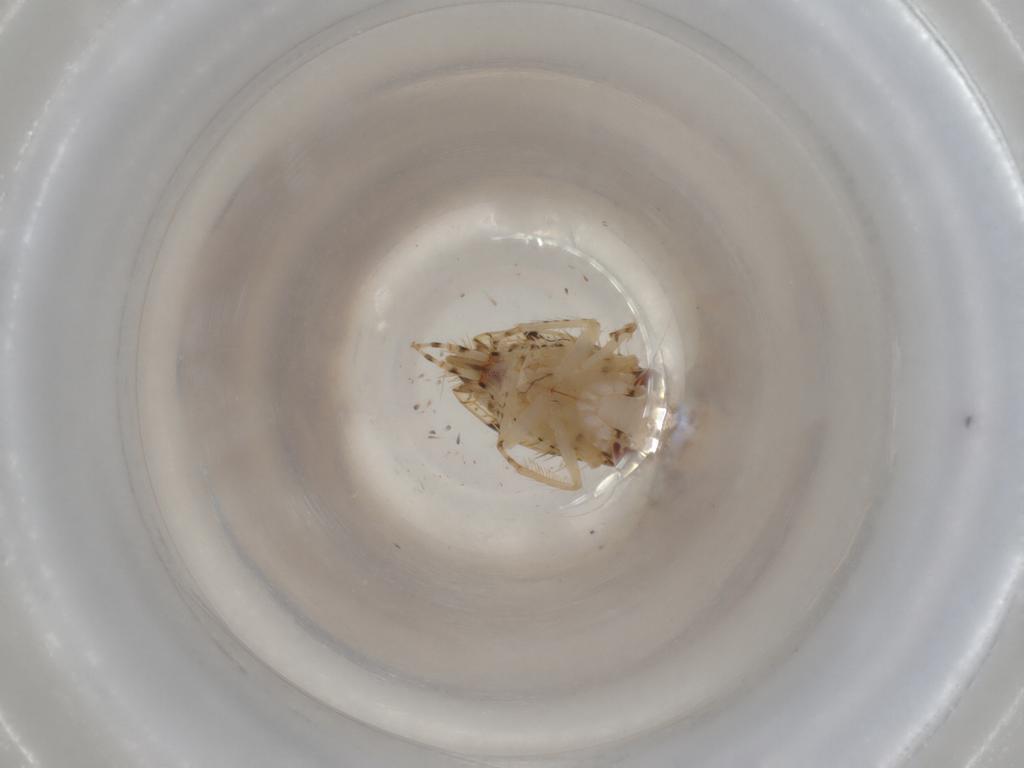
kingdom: Animalia
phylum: Arthropoda
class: Insecta
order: Hemiptera
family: Cicadellidae
